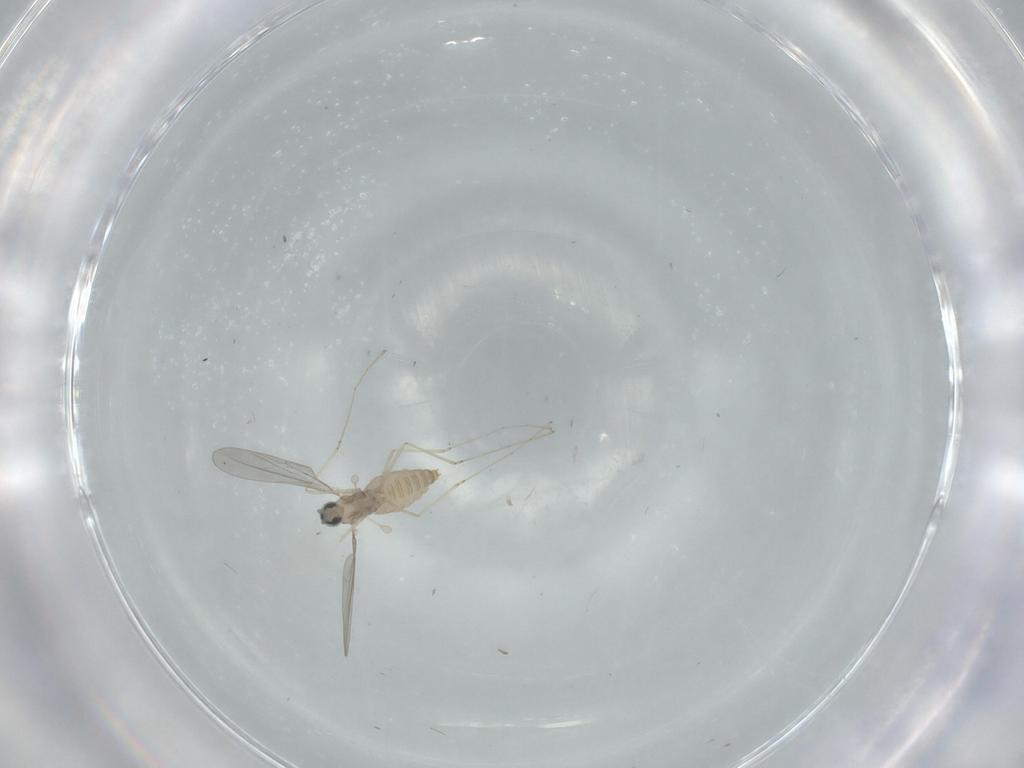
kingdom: Animalia
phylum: Arthropoda
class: Insecta
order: Diptera
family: Cecidomyiidae
